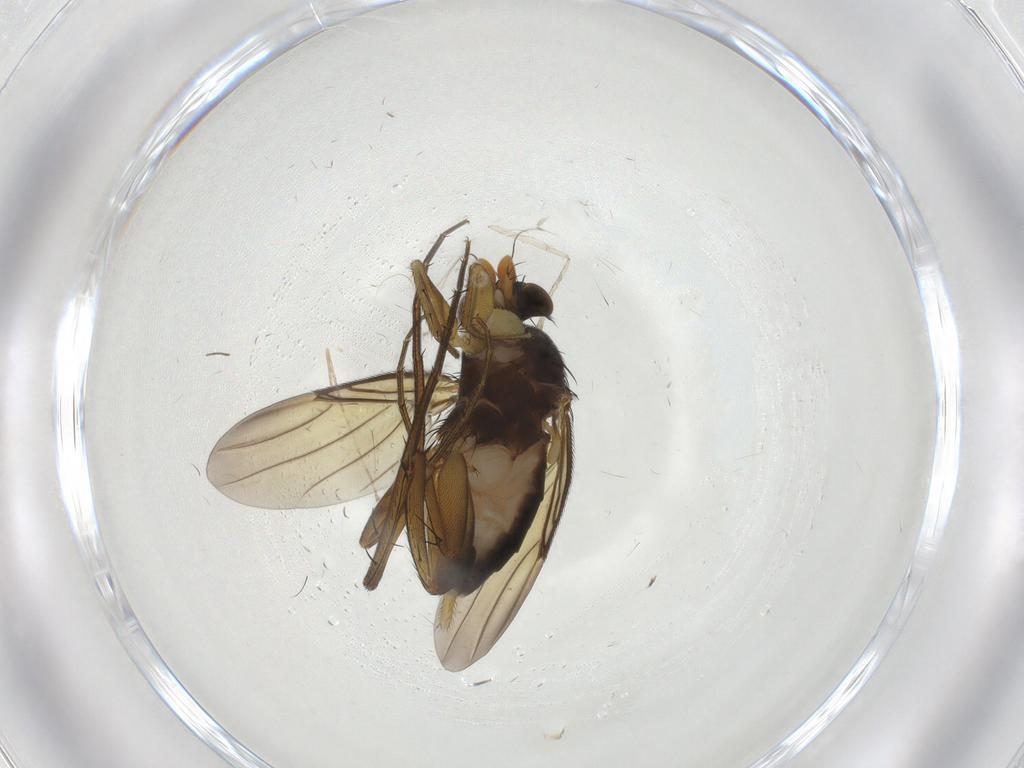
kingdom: Animalia
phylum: Arthropoda
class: Insecta
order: Diptera
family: Phoridae
